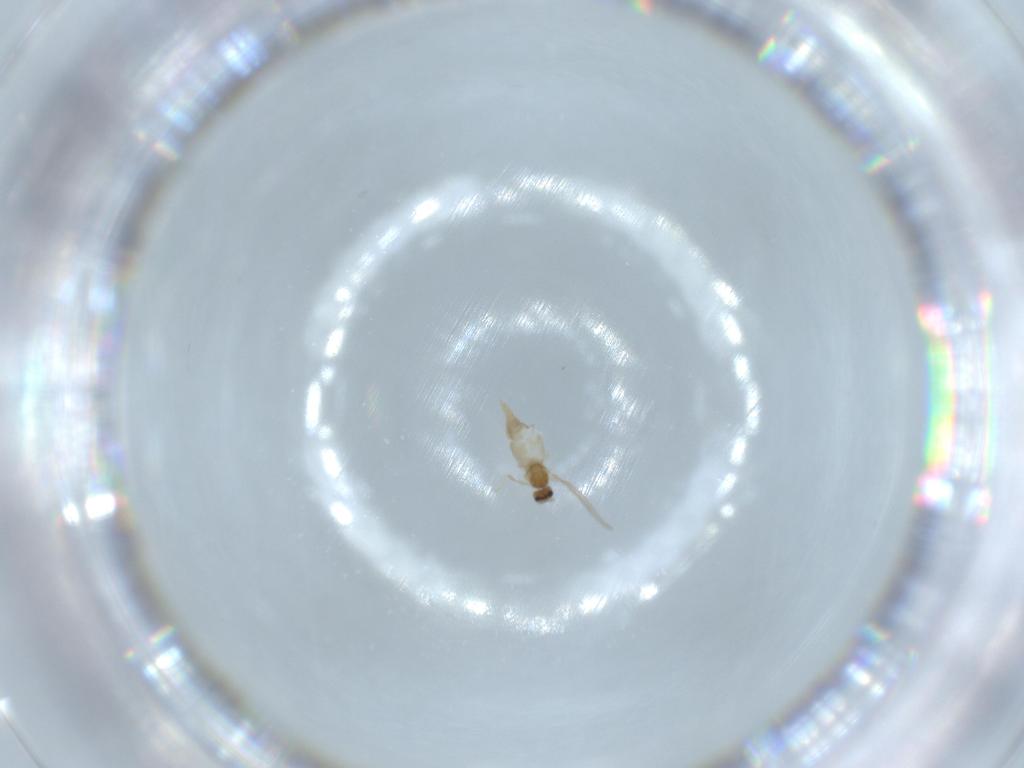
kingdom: Animalia
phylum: Arthropoda
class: Insecta
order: Diptera
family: Cecidomyiidae
